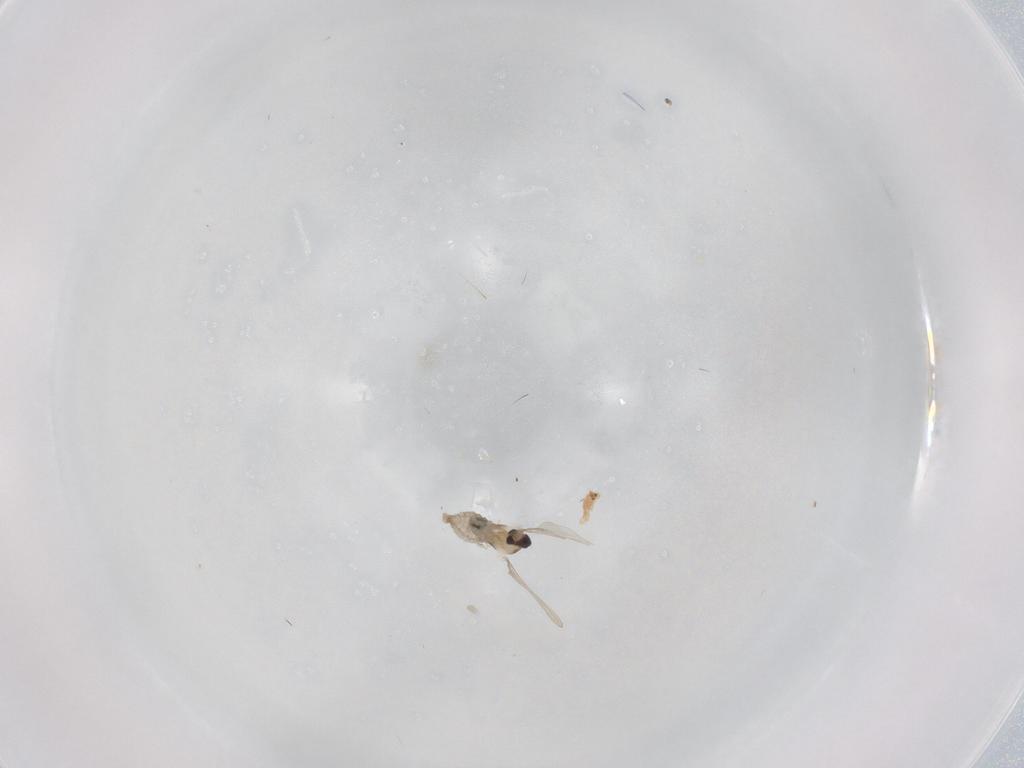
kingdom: Animalia
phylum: Arthropoda
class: Insecta
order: Diptera
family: Cecidomyiidae
